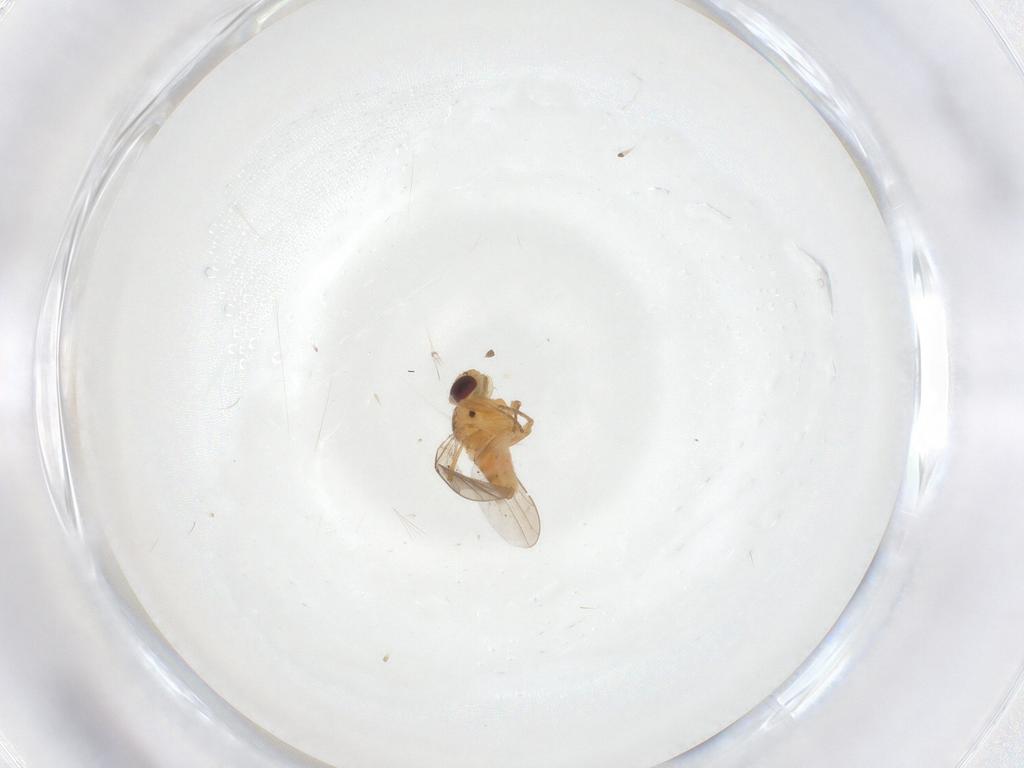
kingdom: Animalia
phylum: Arthropoda
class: Insecta
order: Diptera
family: Chloropidae
